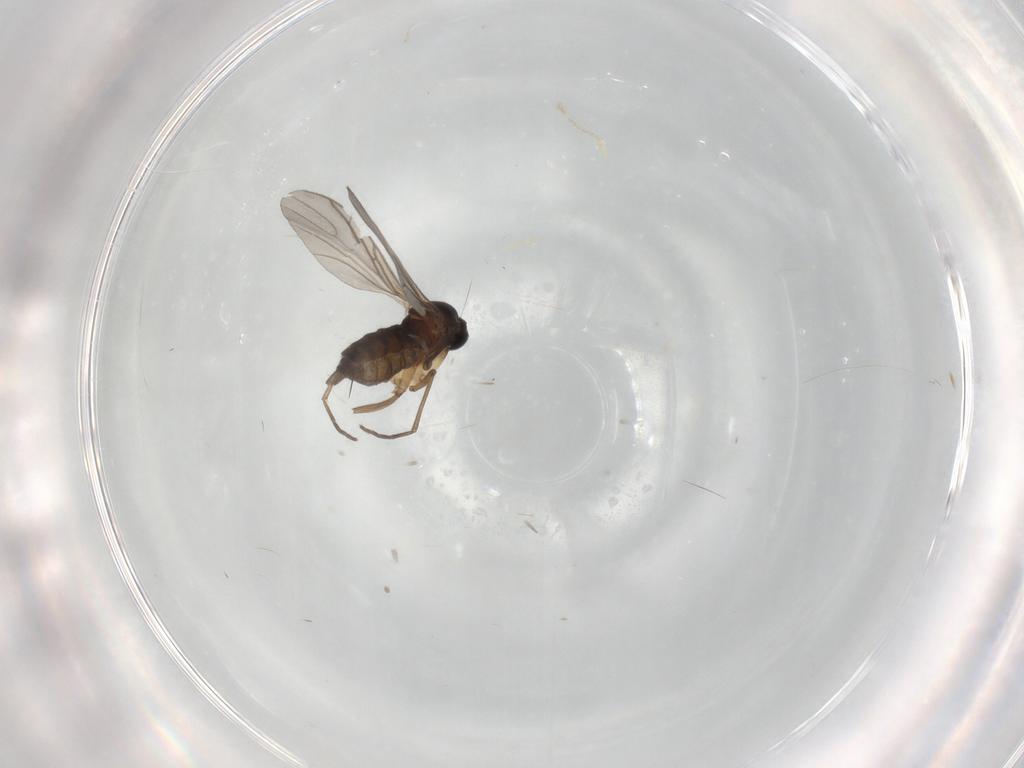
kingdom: Animalia
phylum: Arthropoda
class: Insecta
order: Diptera
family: Sciaridae
